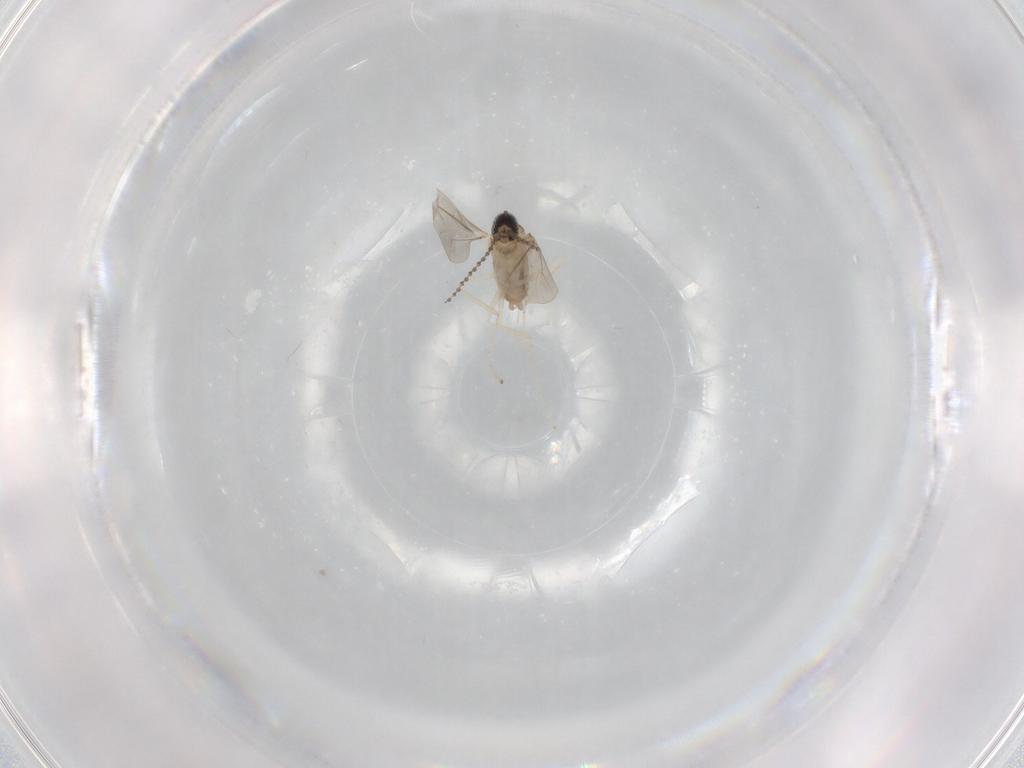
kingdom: Animalia
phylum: Arthropoda
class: Insecta
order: Diptera
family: Cecidomyiidae
